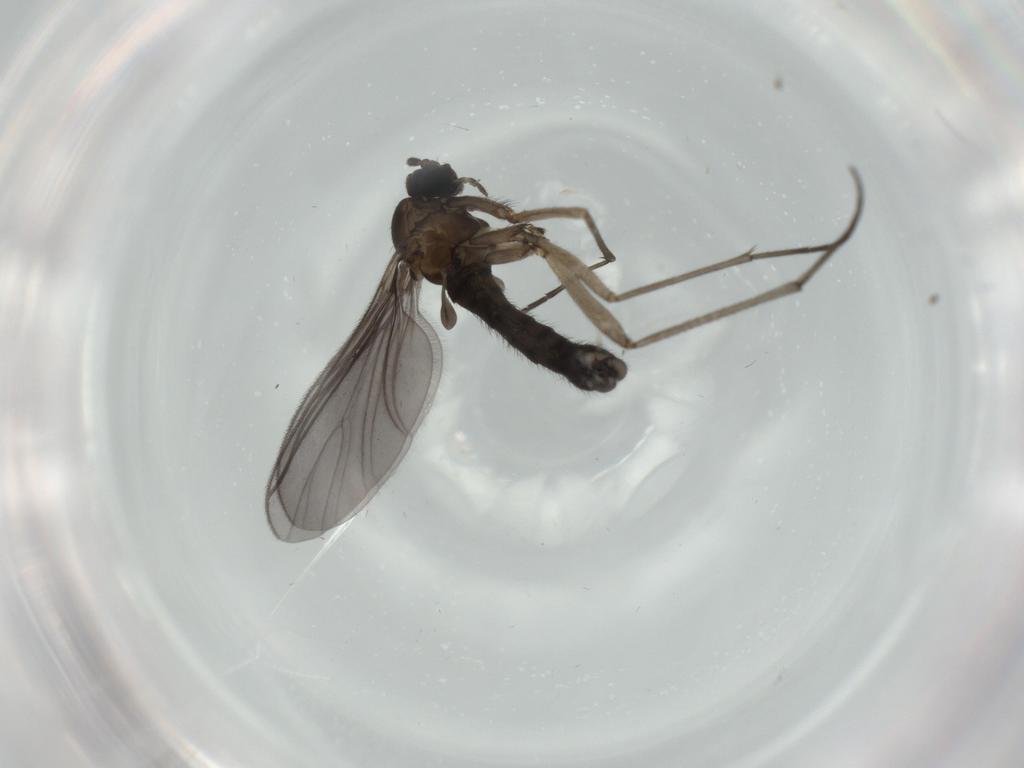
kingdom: Animalia
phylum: Arthropoda
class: Insecta
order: Diptera
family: Sciaridae
